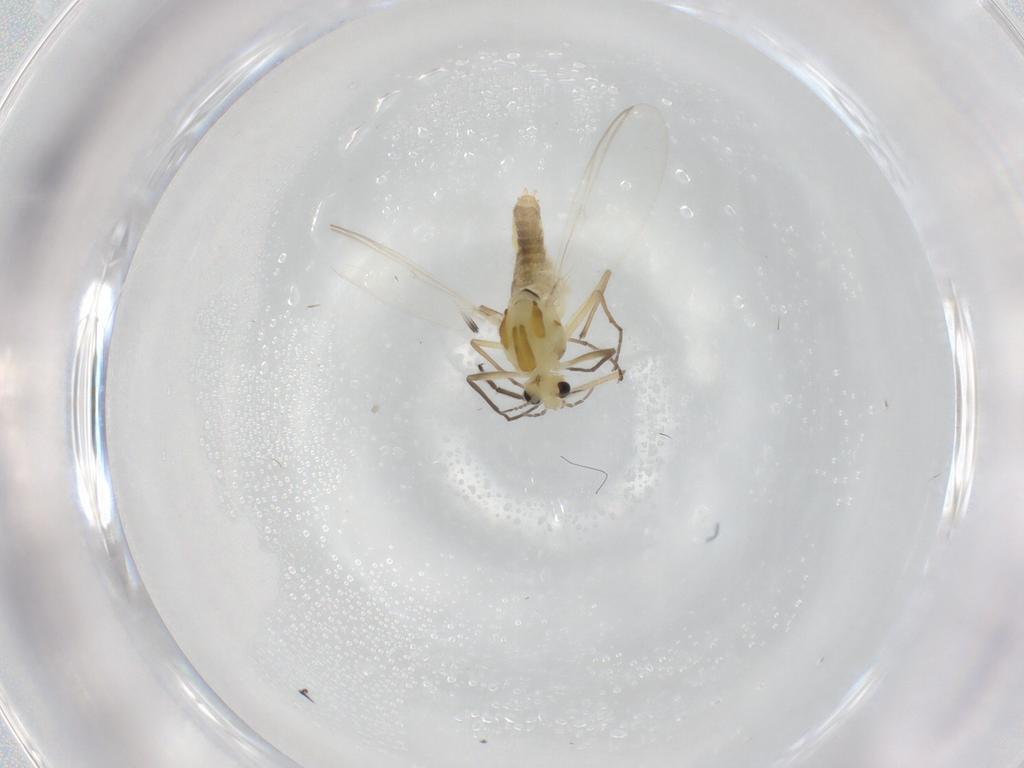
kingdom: Animalia
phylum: Arthropoda
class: Insecta
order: Diptera
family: Chironomidae
